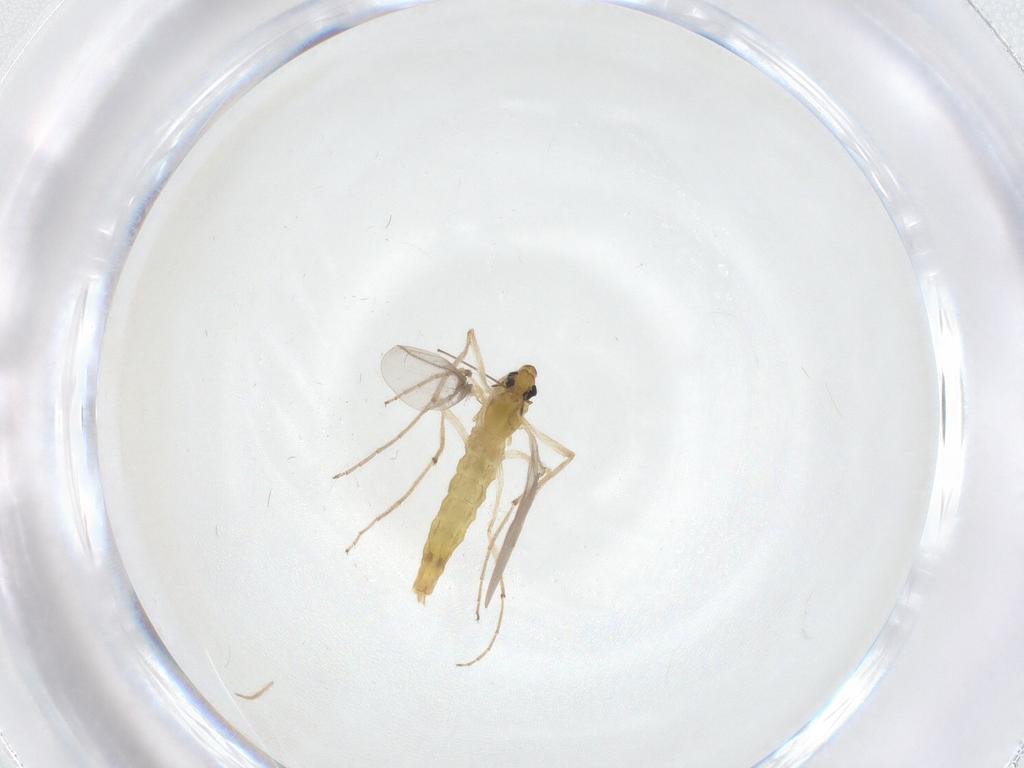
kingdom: Animalia
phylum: Arthropoda
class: Insecta
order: Diptera
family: Chironomidae
